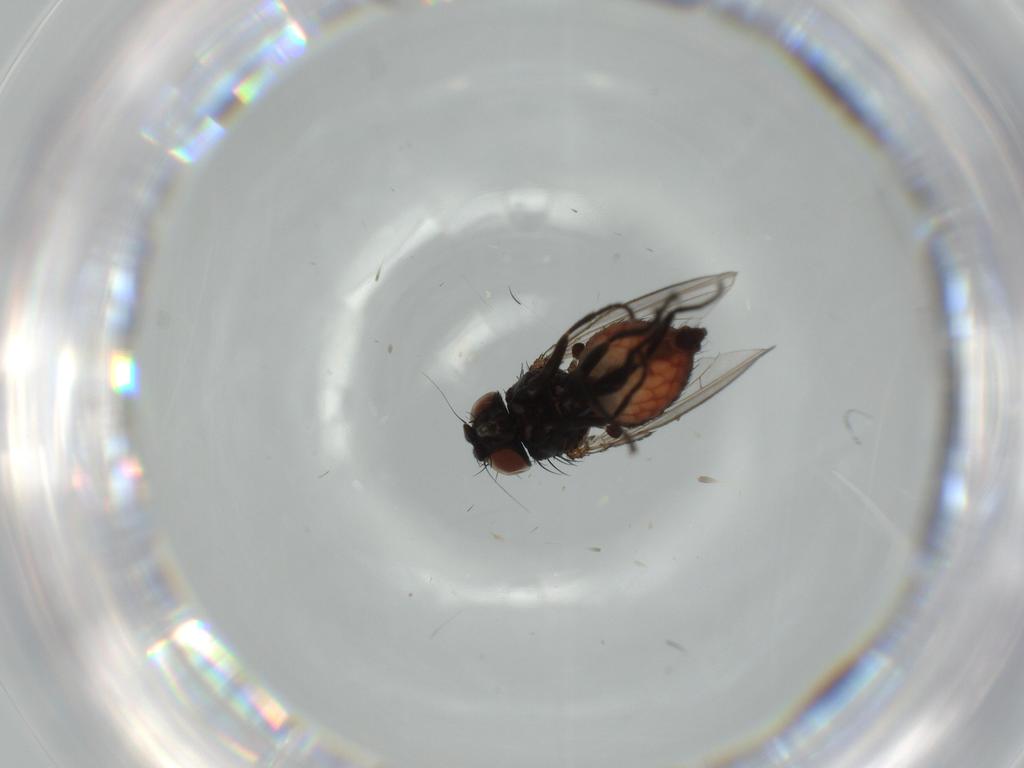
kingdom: Animalia
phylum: Arthropoda
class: Insecta
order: Diptera
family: Milichiidae
